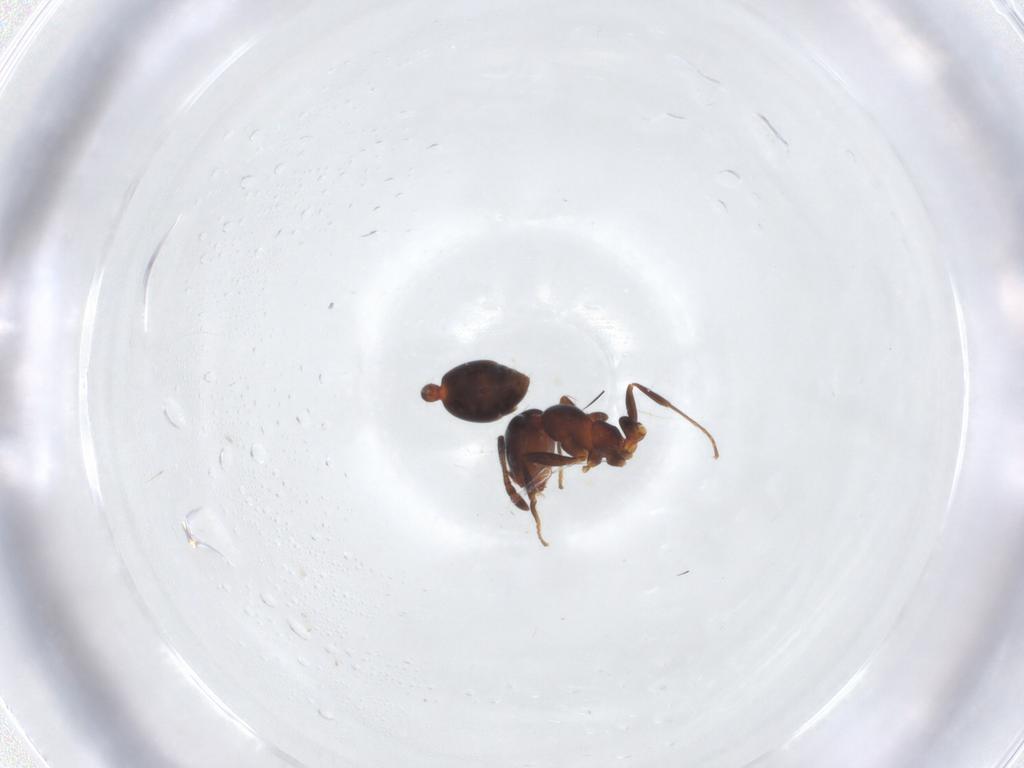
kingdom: Animalia
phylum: Arthropoda
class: Insecta
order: Hymenoptera
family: Formicidae
